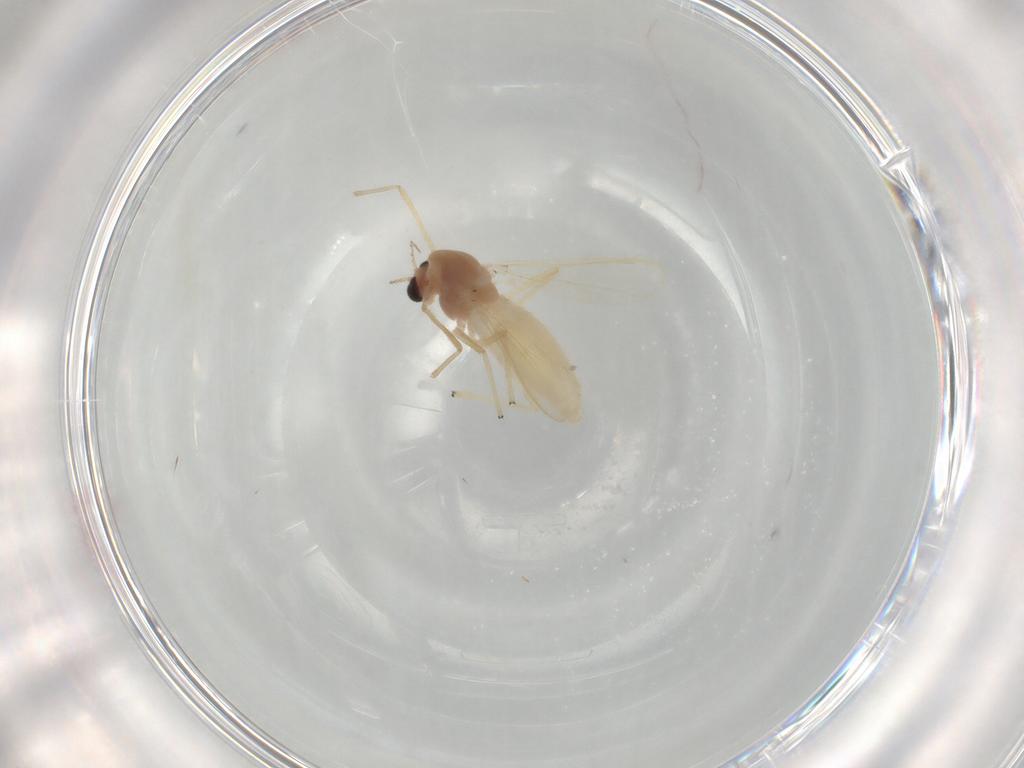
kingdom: Animalia
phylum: Arthropoda
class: Insecta
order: Diptera
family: Chironomidae
